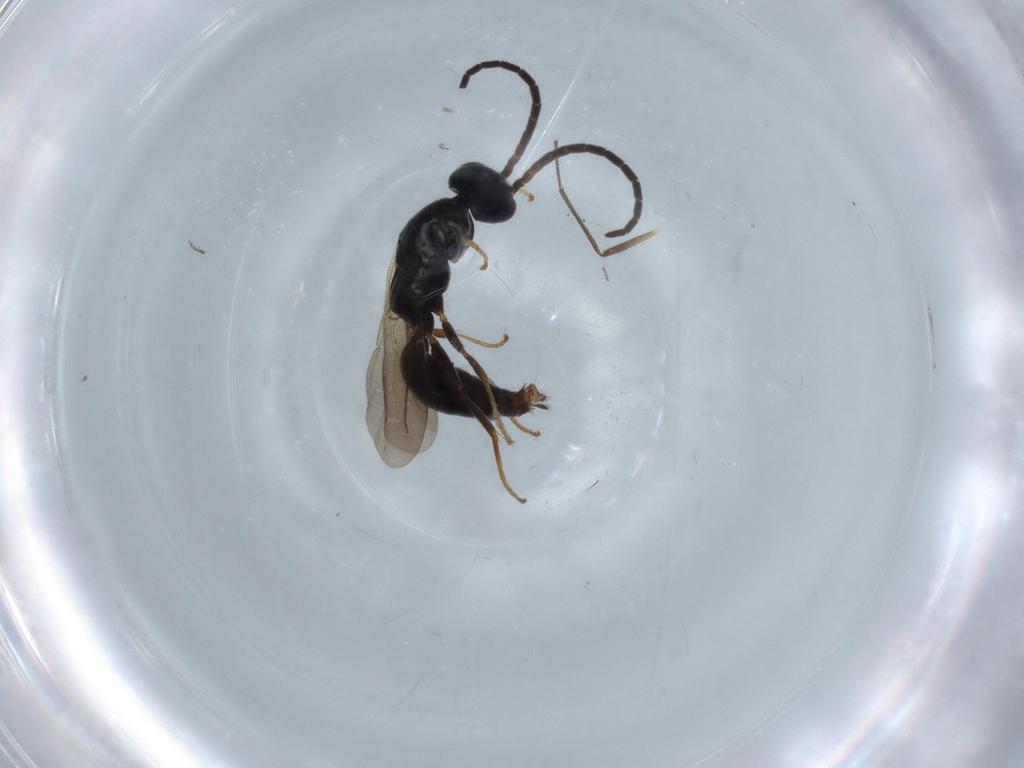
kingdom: Animalia
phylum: Arthropoda
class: Insecta
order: Hymenoptera
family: Bethylidae
